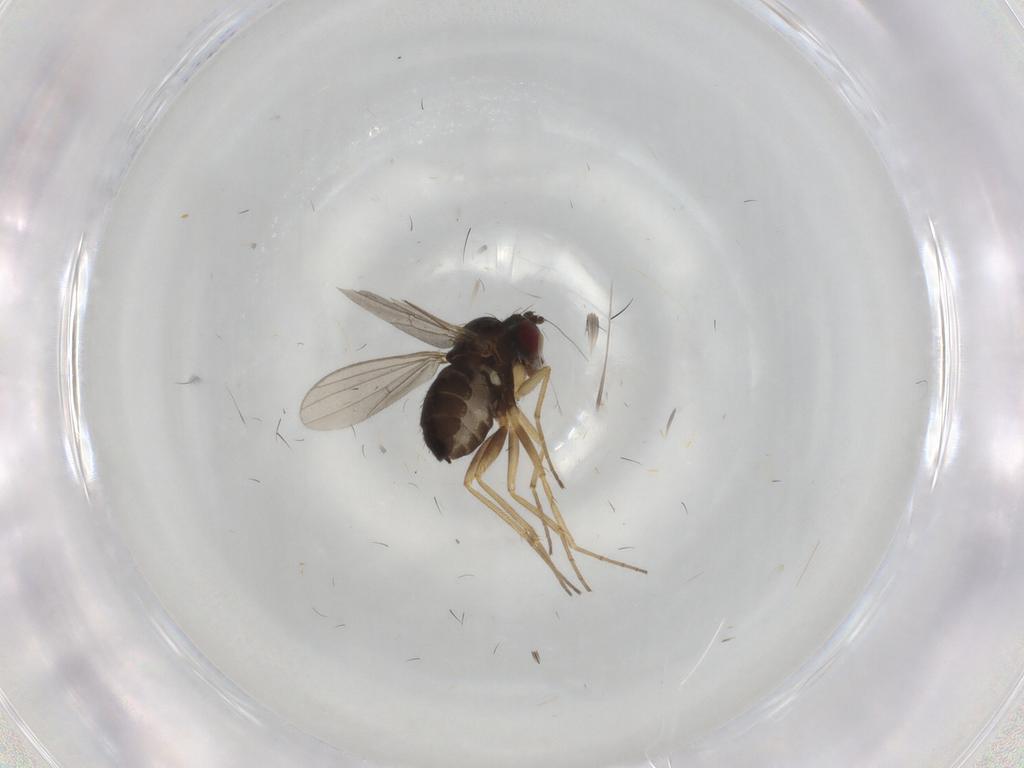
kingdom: Animalia
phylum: Arthropoda
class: Insecta
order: Diptera
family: Dolichopodidae
